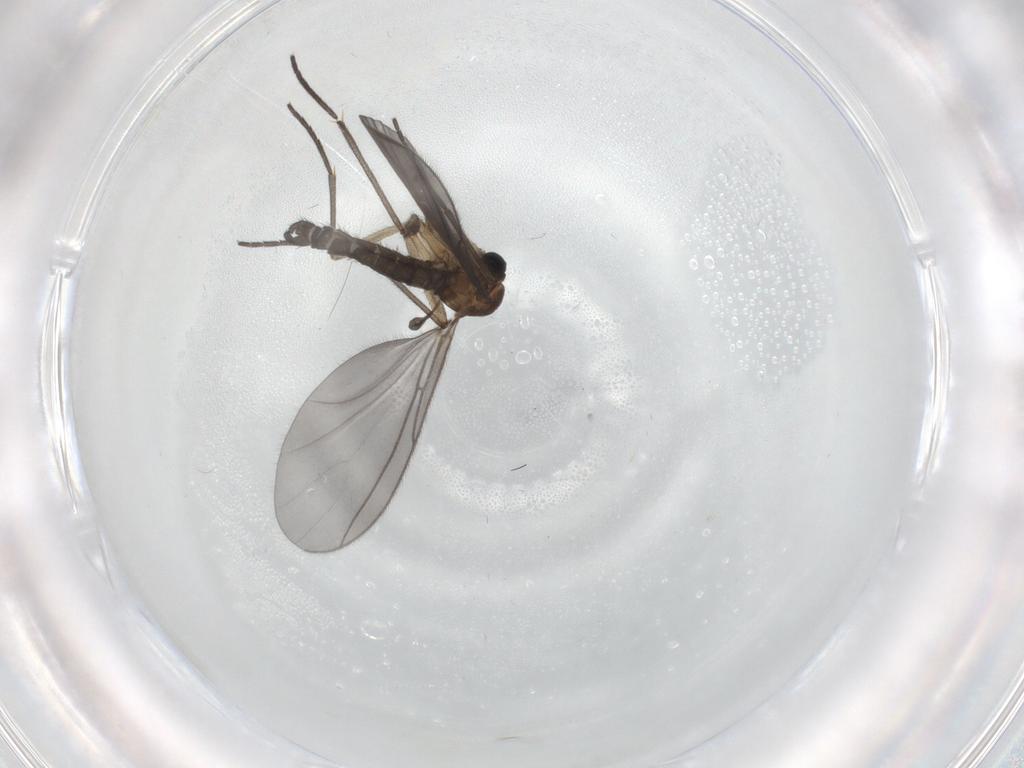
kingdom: Animalia
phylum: Arthropoda
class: Insecta
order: Diptera
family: Sciaridae
